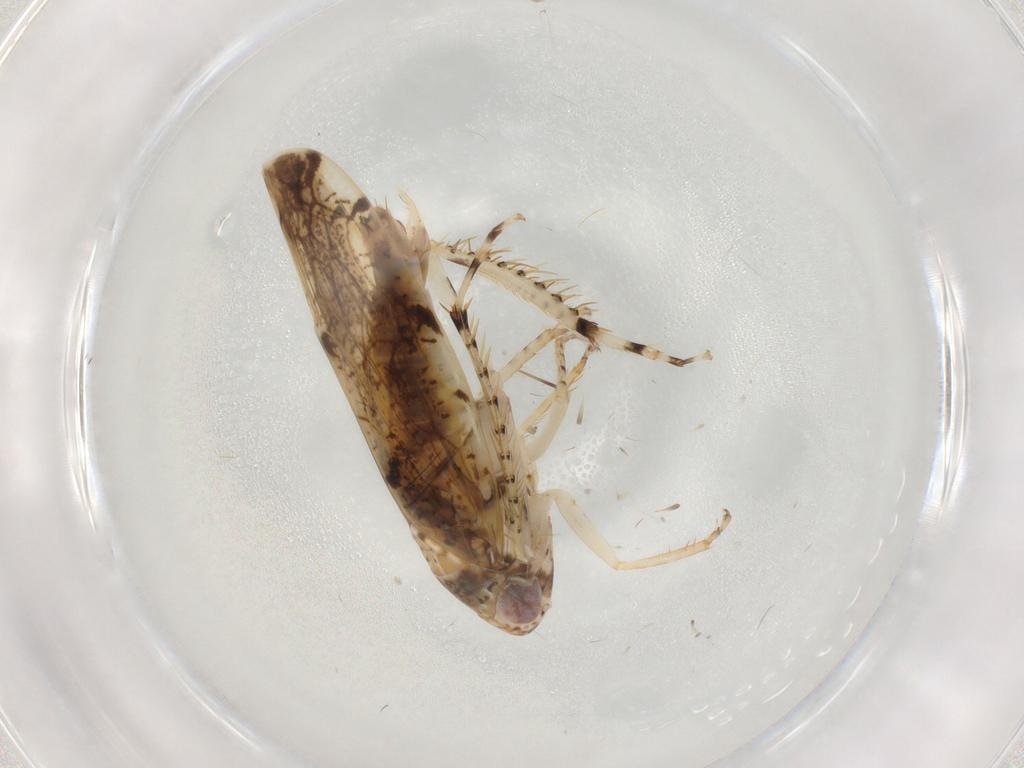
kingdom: Animalia
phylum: Arthropoda
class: Insecta
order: Hemiptera
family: Cicadellidae
